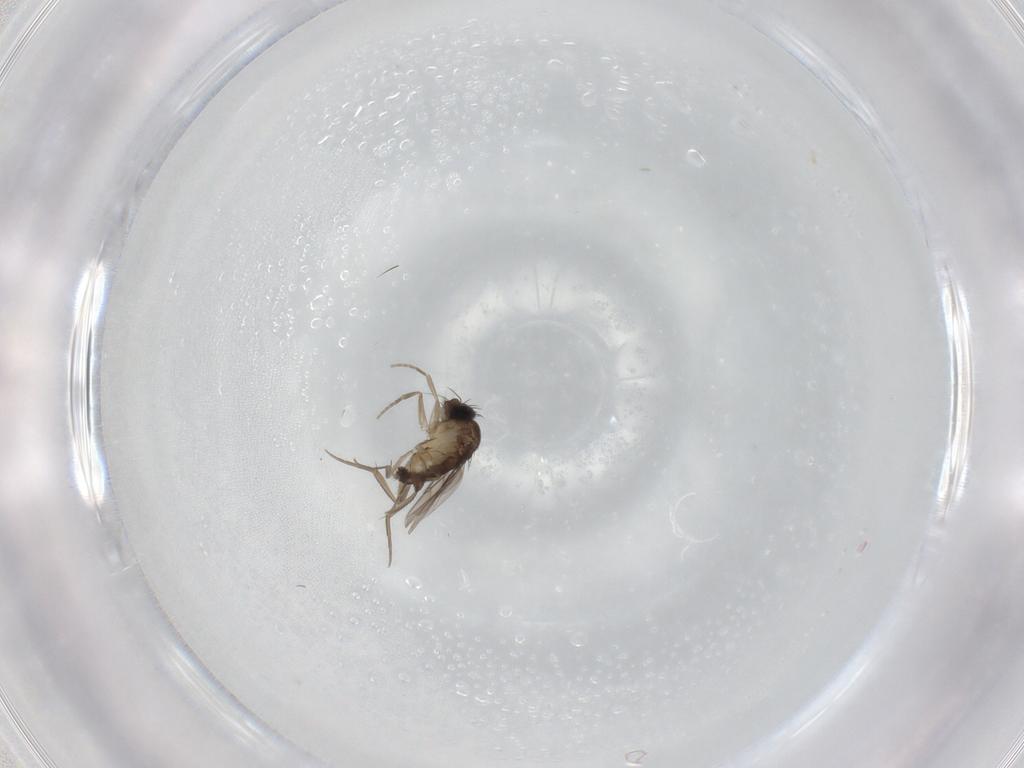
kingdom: Animalia
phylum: Arthropoda
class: Insecta
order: Diptera
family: Phoridae
